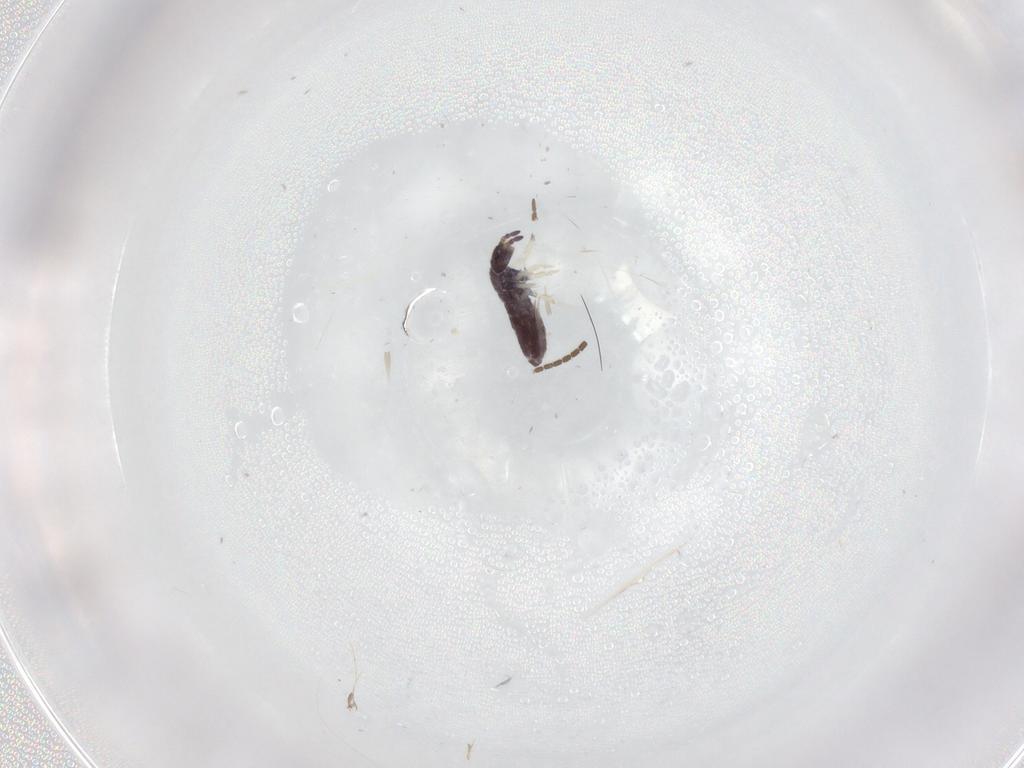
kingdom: Animalia
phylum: Arthropoda
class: Collembola
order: Entomobryomorpha
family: Entomobryidae
